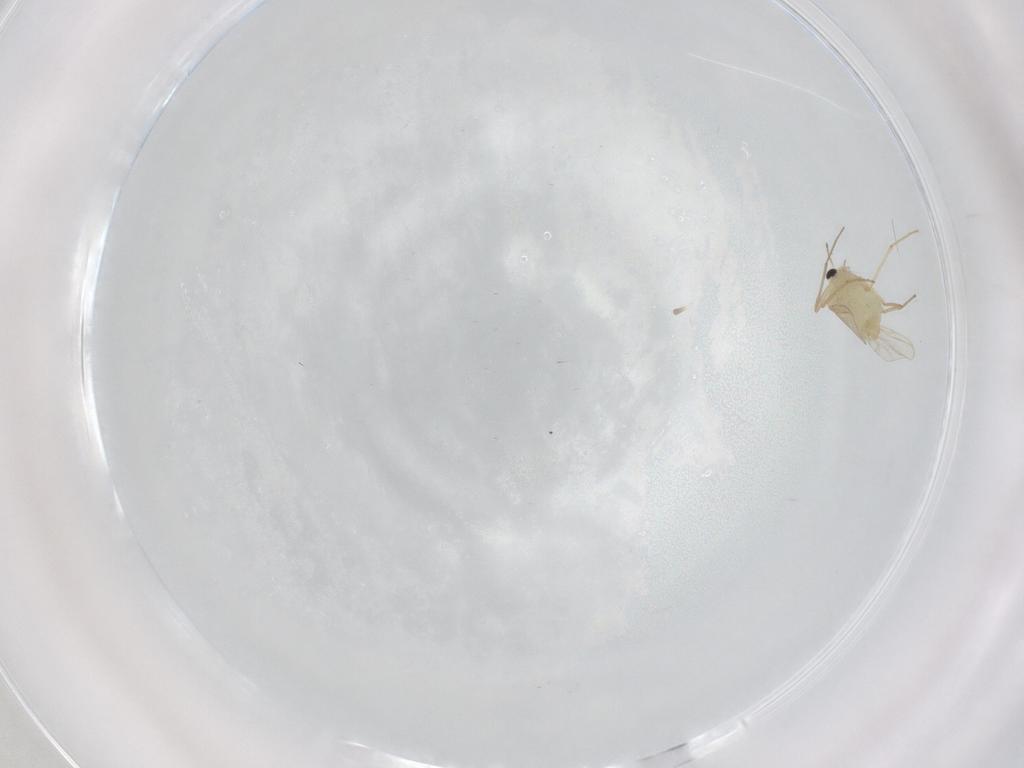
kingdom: Animalia
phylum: Arthropoda
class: Insecta
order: Diptera
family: Chironomidae
